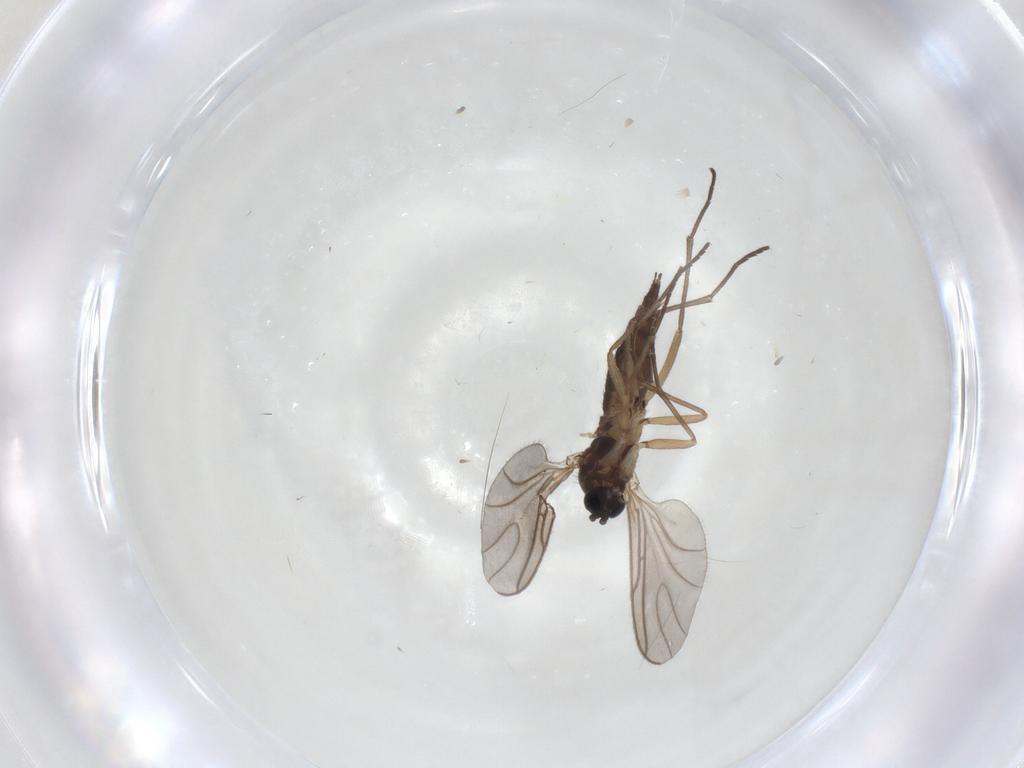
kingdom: Animalia
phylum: Arthropoda
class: Insecta
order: Diptera
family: Sciaridae
